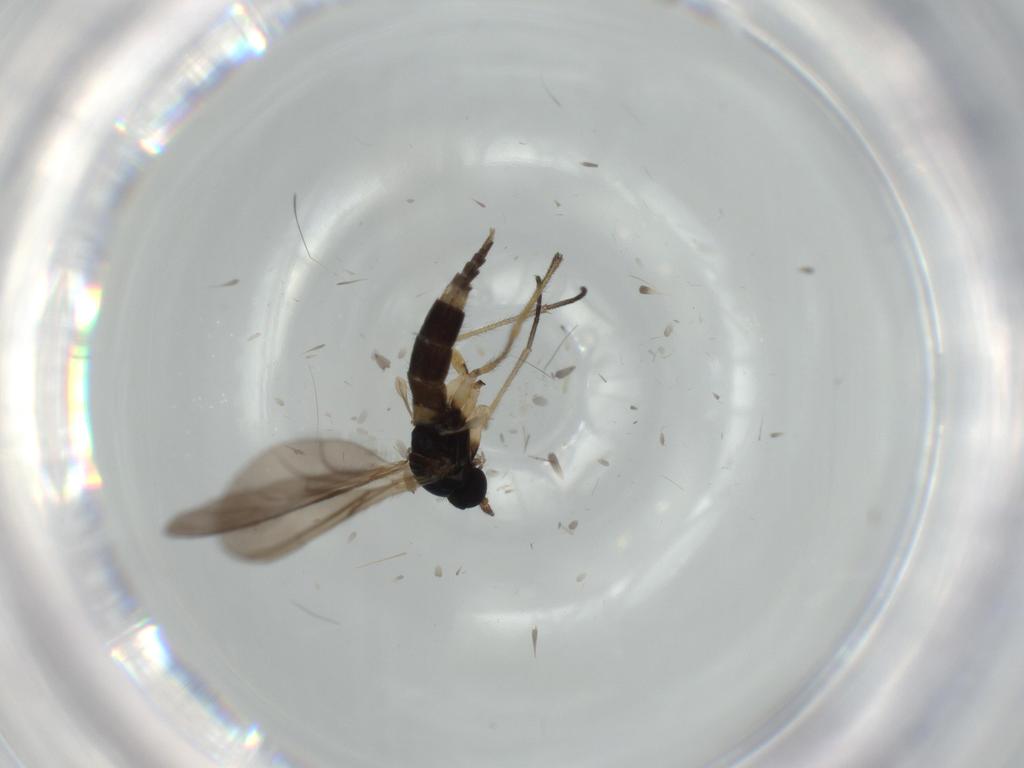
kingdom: Animalia
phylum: Arthropoda
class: Insecta
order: Diptera
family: Sciaridae
